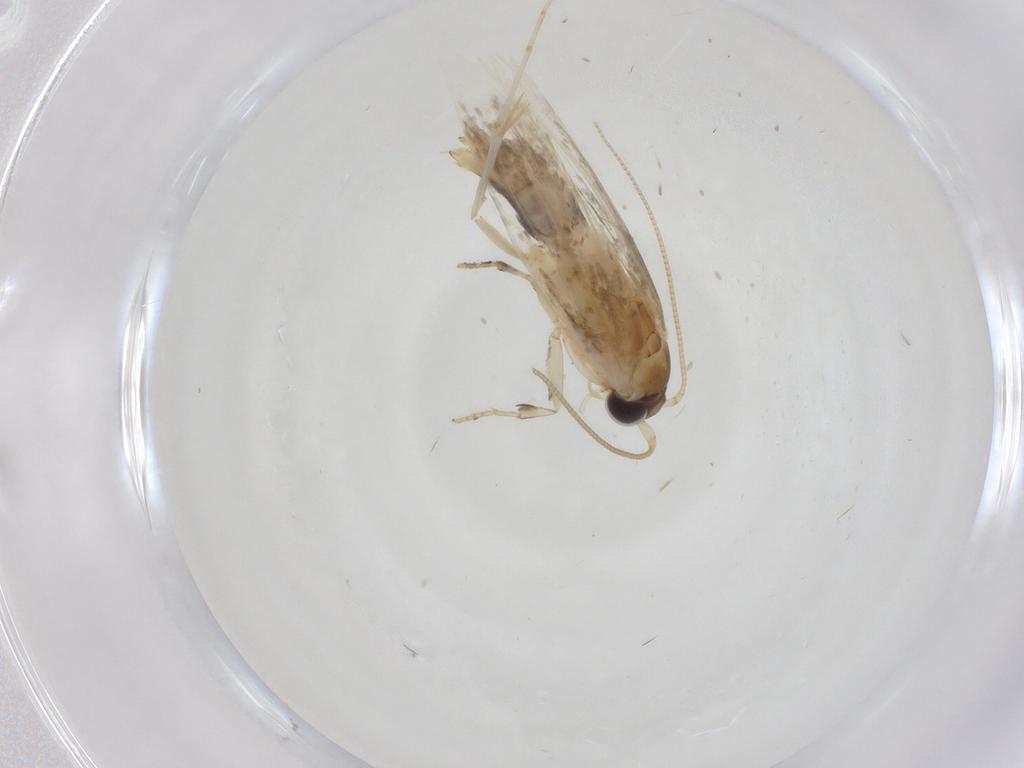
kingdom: Animalia
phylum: Arthropoda
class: Insecta
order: Lepidoptera
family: Tineidae
